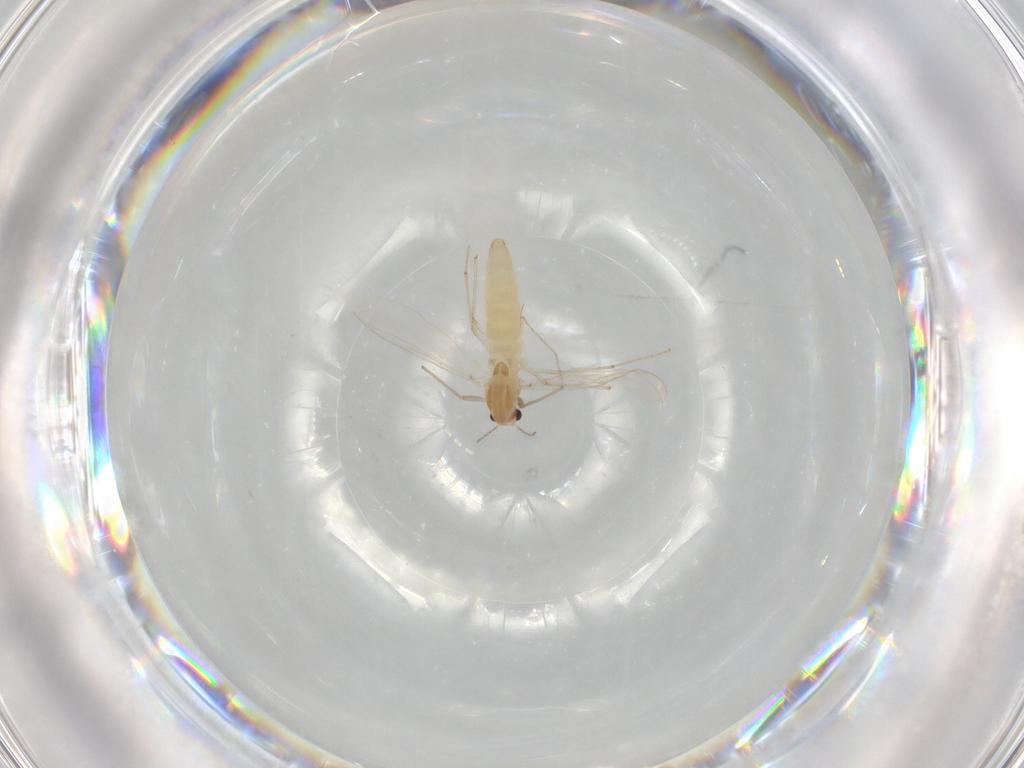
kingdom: Animalia
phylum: Arthropoda
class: Insecta
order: Diptera
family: Chironomidae
